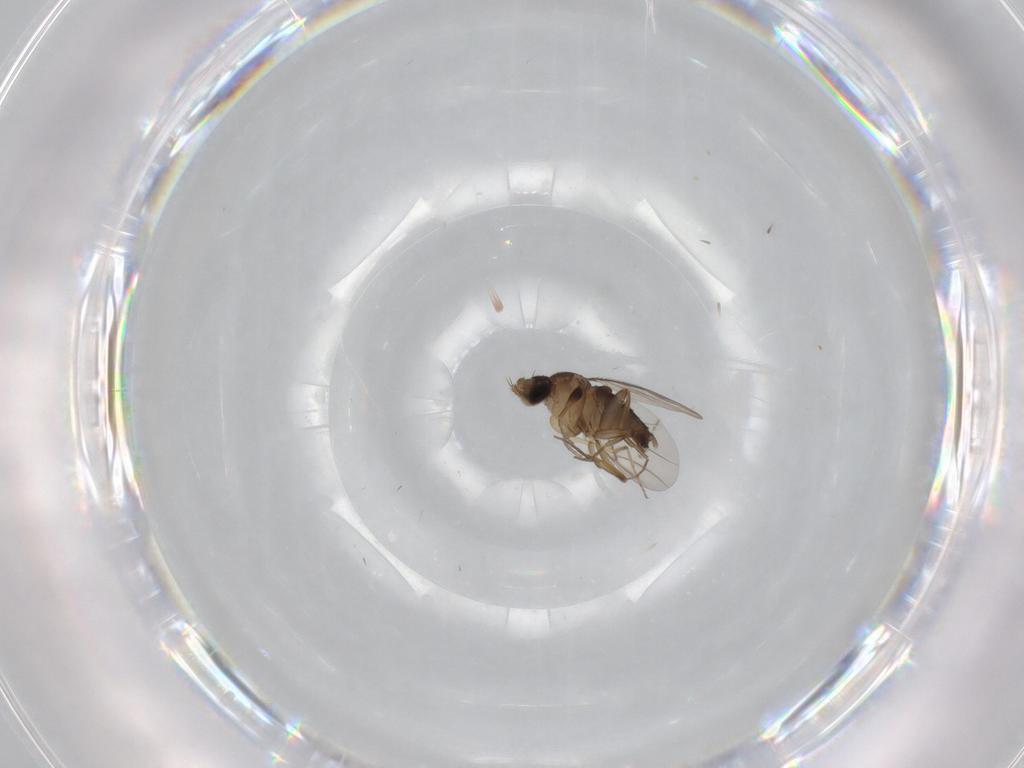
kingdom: Animalia
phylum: Arthropoda
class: Insecta
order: Diptera
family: Phoridae
